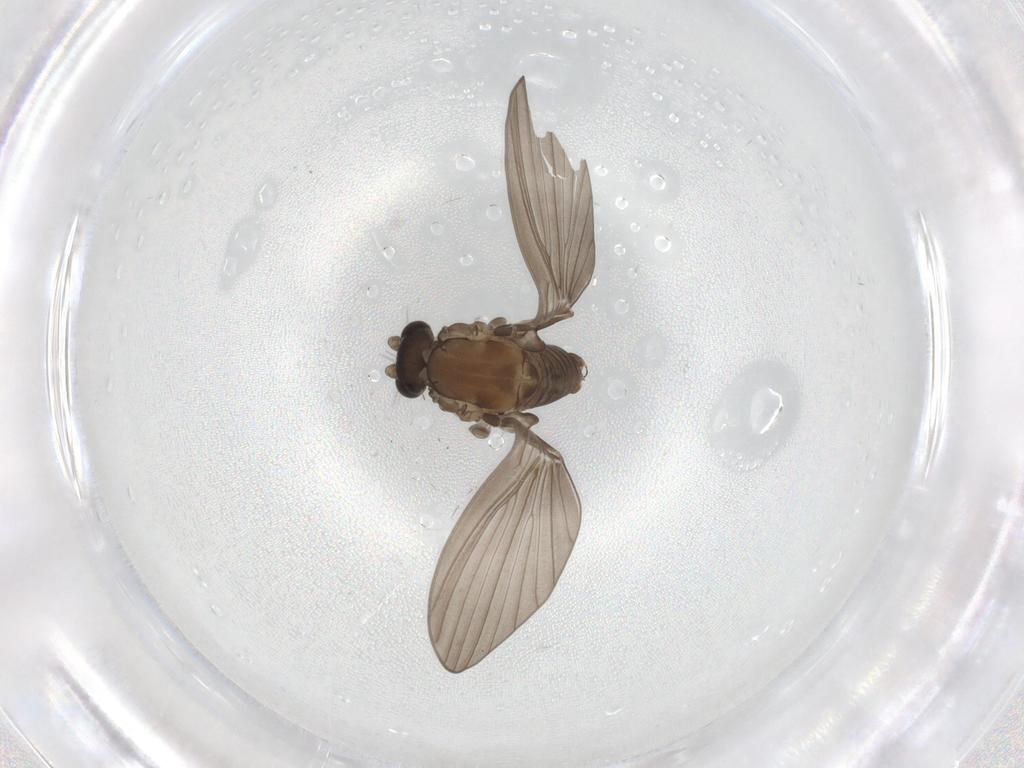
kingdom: Animalia
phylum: Arthropoda
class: Insecta
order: Diptera
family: Psychodidae
